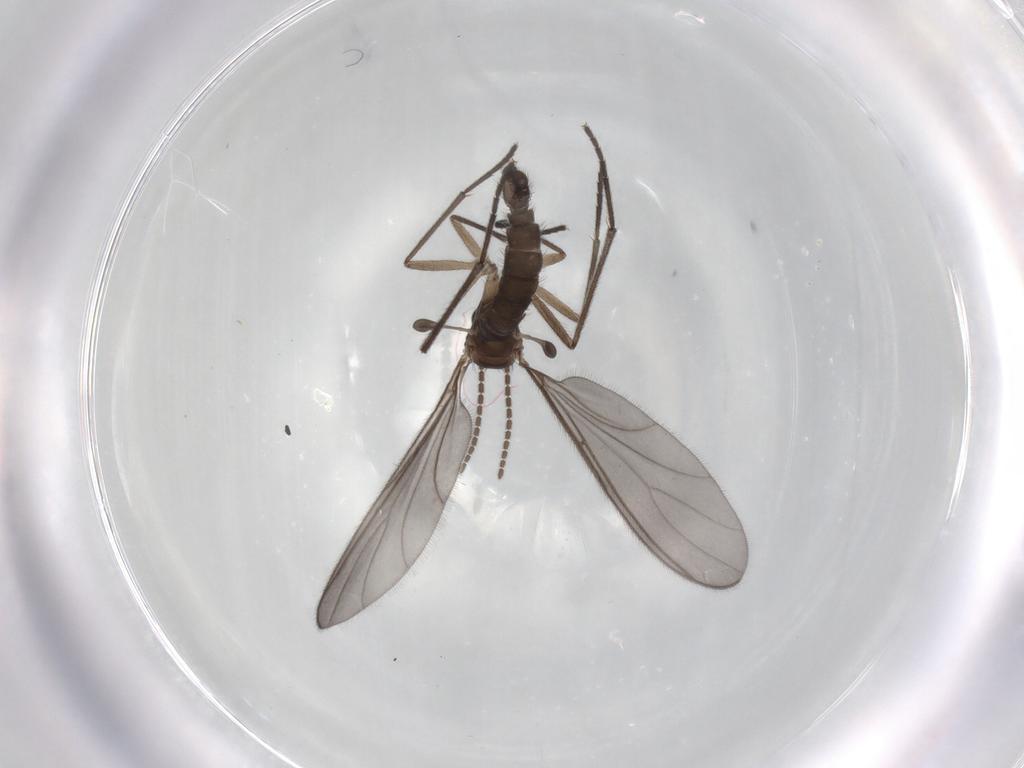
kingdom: Animalia
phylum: Arthropoda
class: Insecta
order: Diptera
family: Sciaridae
